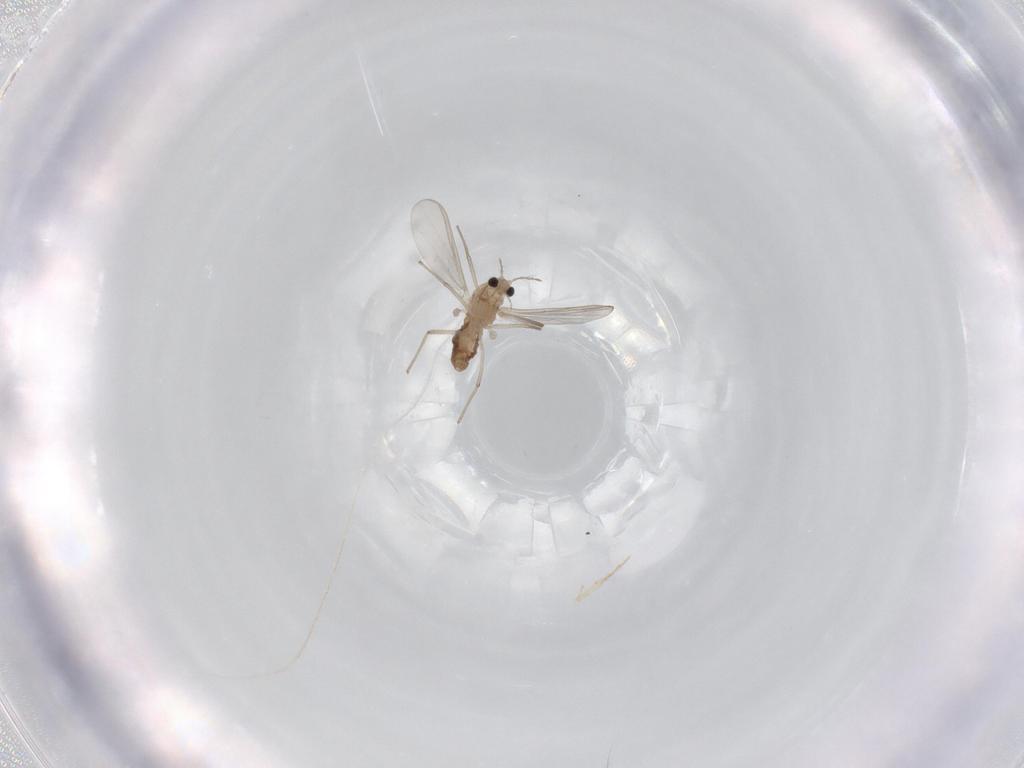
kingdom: Animalia
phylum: Arthropoda
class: Insecta
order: Diptera
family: Chironomidae
